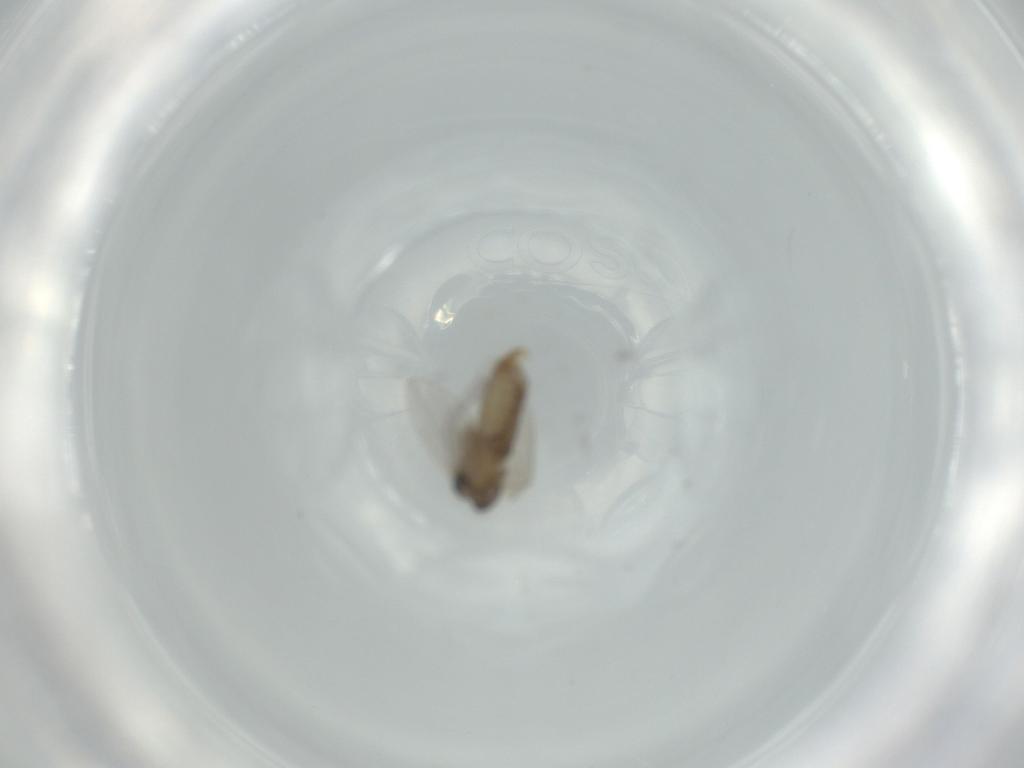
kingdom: Animalia
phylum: Arthropoda
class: Insecta
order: Diptera
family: Psychodidae
